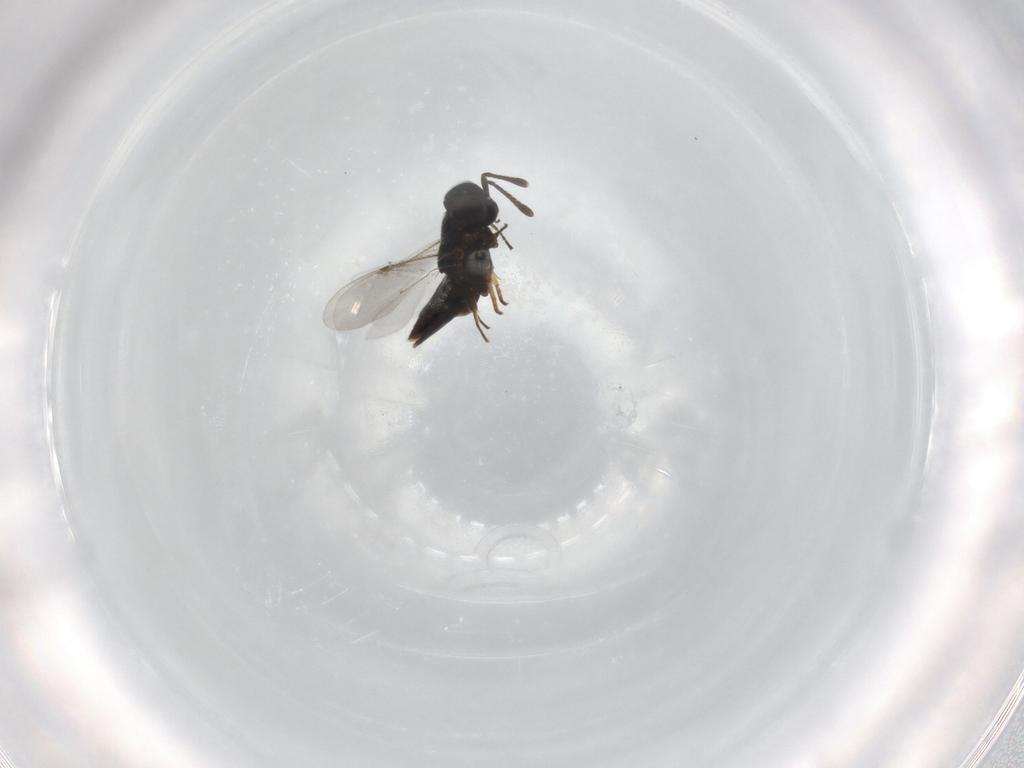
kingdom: Animalia
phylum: Arthropoda
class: Insecta
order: Hymenoptera
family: Encyrtidae
